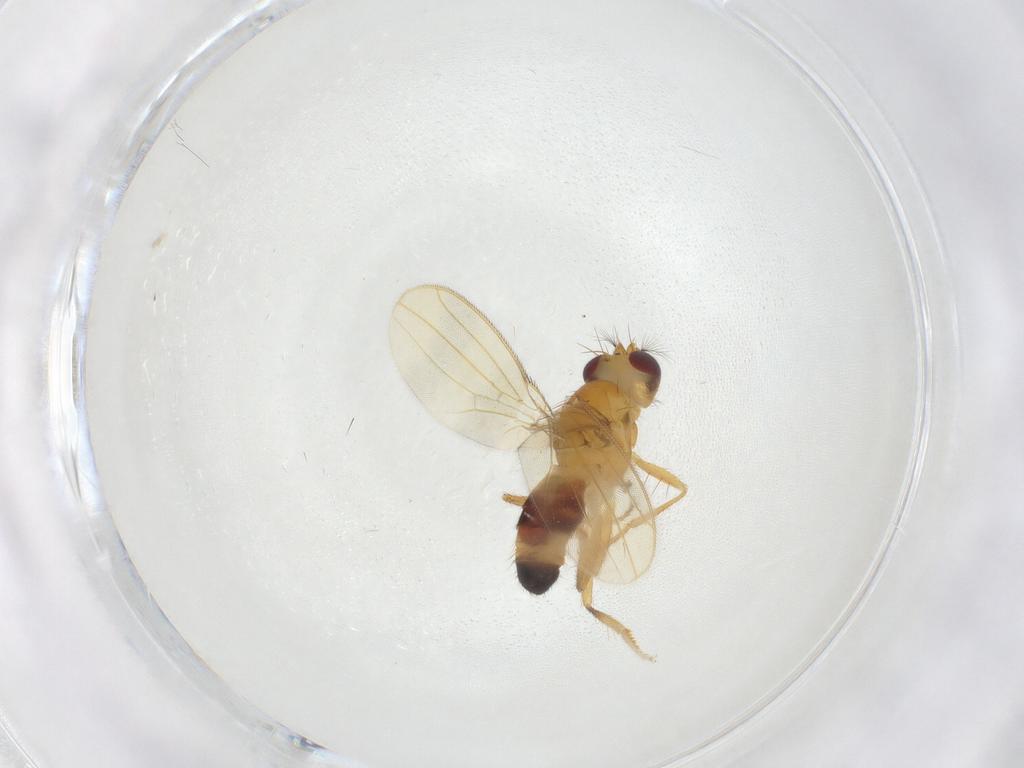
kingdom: Animalia
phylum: Arthropoda
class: Insecta
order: Diptera
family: Periscelididae
